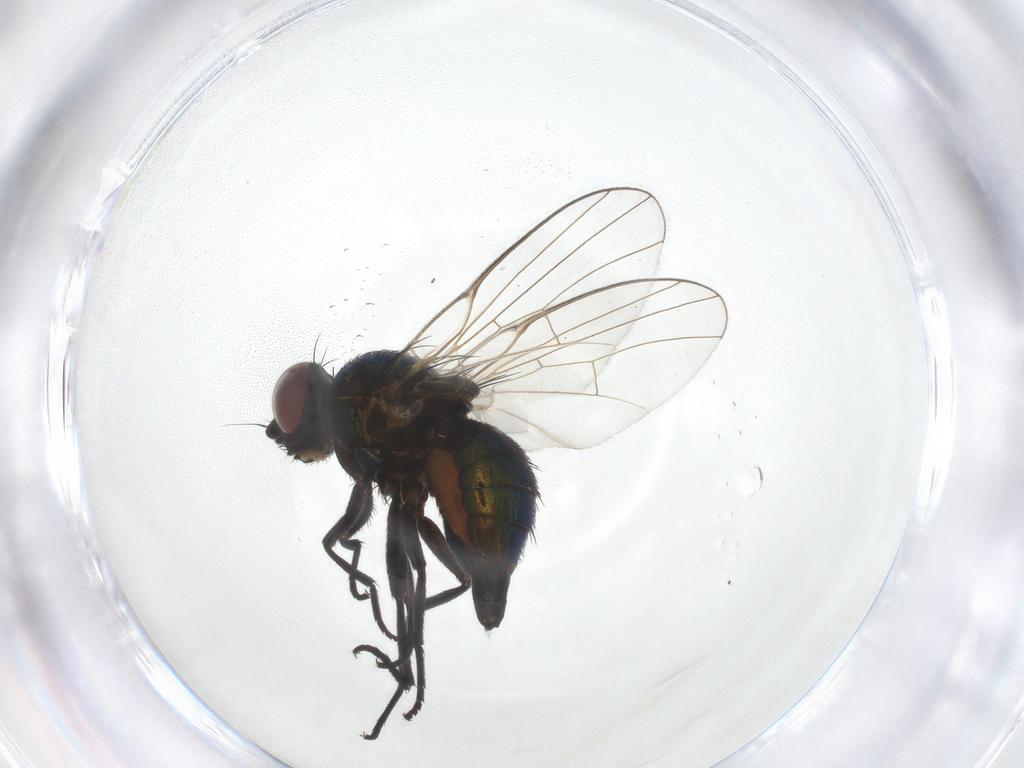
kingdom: Animalia
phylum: Arthropoda
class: Insecta
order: Diptera
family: Agromyzidae
